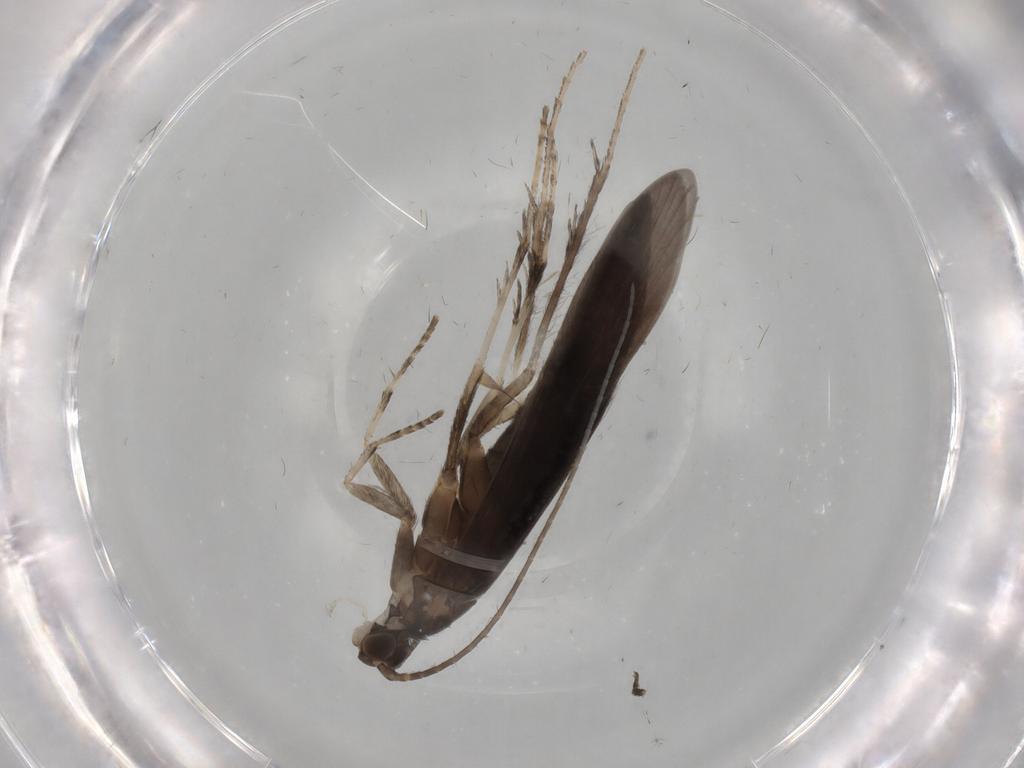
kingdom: Animalia
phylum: Arthropoda
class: Insecta
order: Trichoptera
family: Xiphocentronidae
